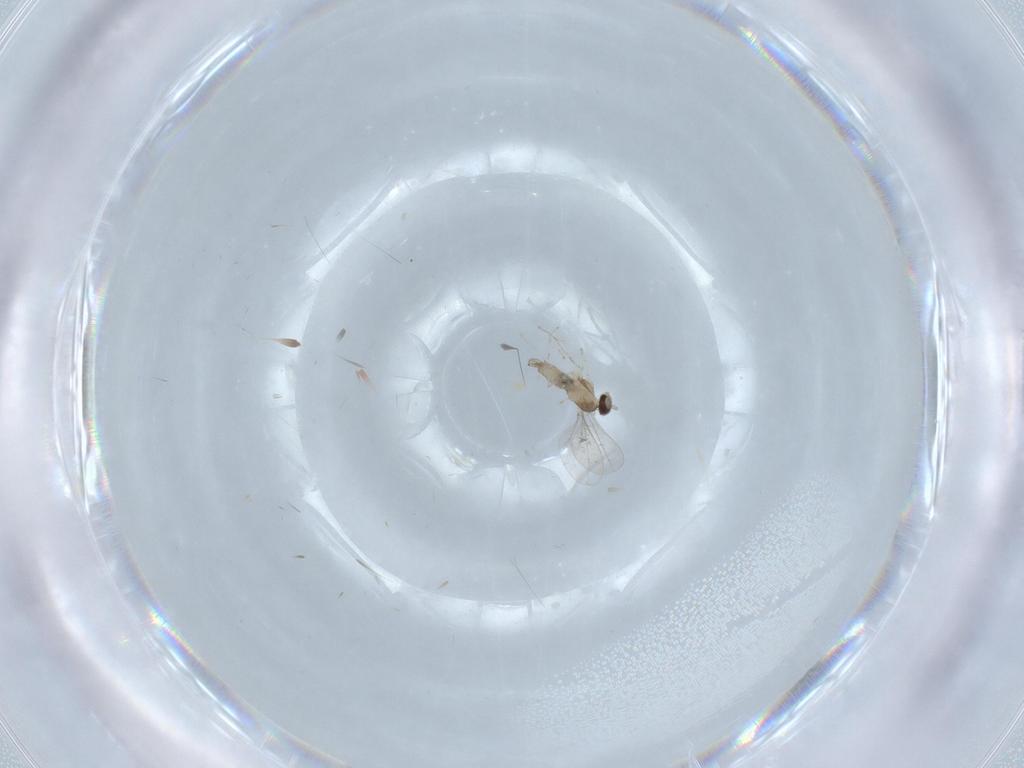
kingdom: Animalia
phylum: Arthropoda
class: Insecta
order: Diptera
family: Cecidomyiidae
